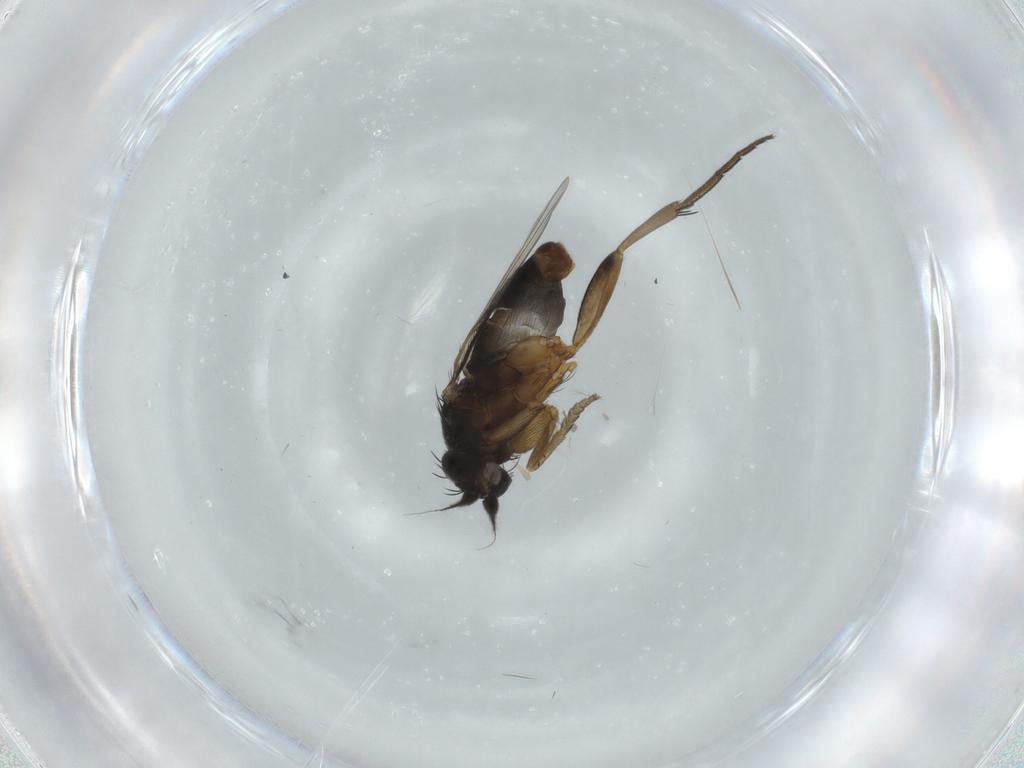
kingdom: Animalia
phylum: Arthropoda
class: Insecta
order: Diptera
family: Phoridae
